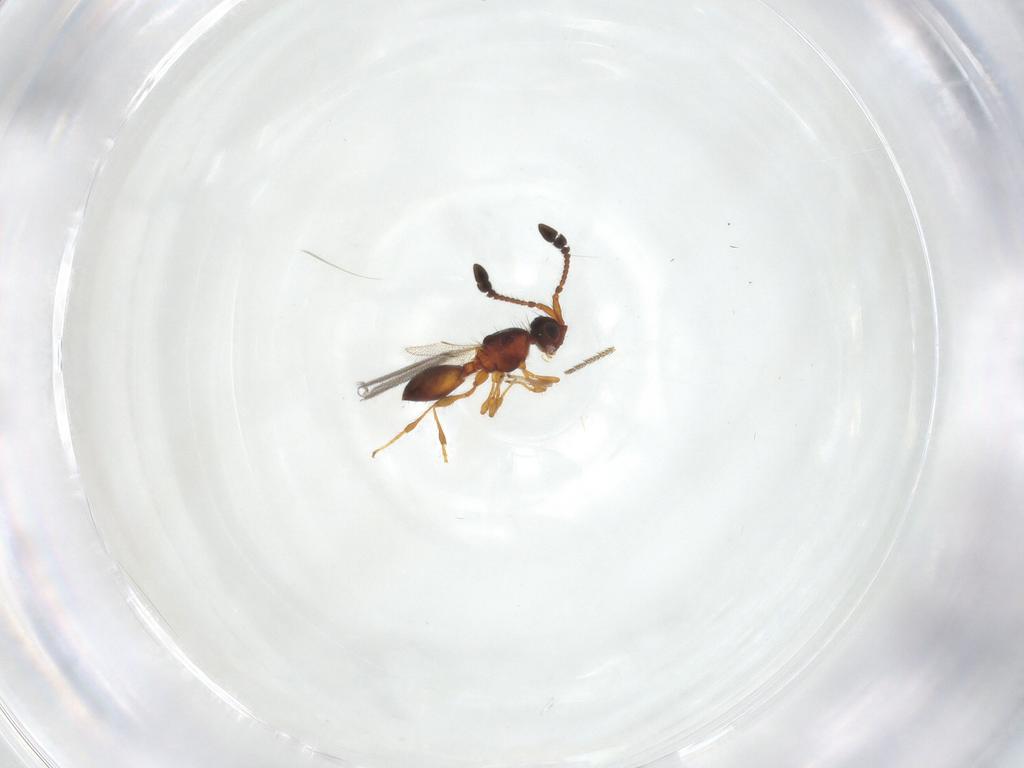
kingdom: Animalia
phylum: Arthropoda
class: Insecta
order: Hymenoptera
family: Diapriidae
